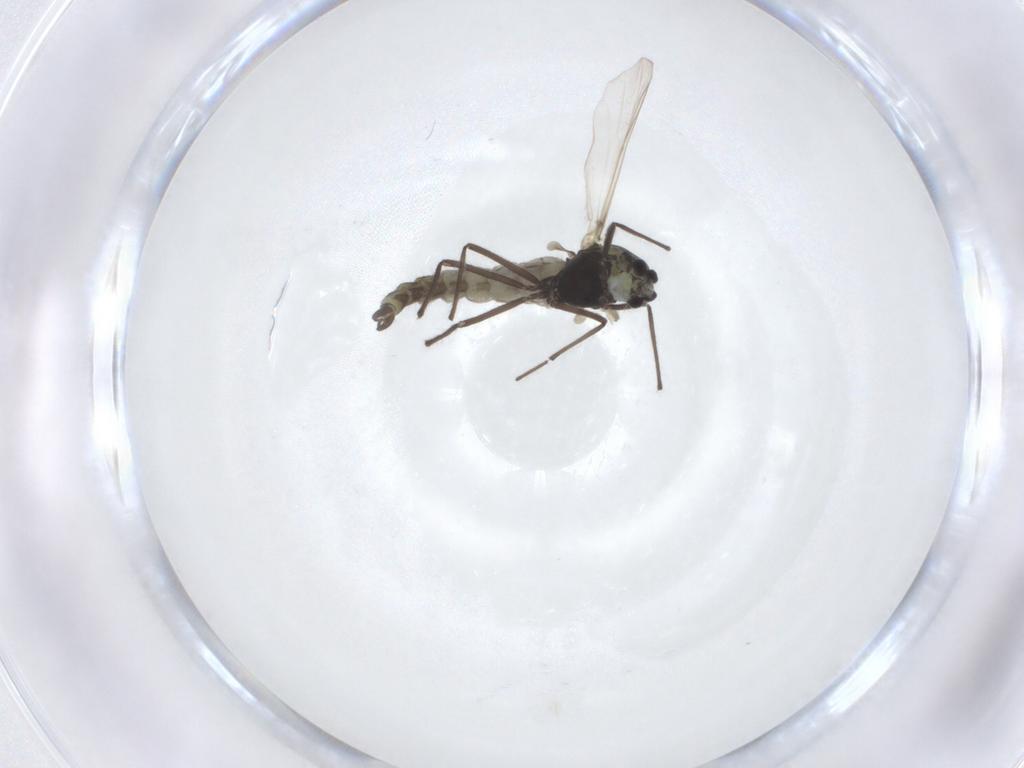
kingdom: Animalia
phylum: Arthropoda
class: Insecta
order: Diptera
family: Chironomidae
